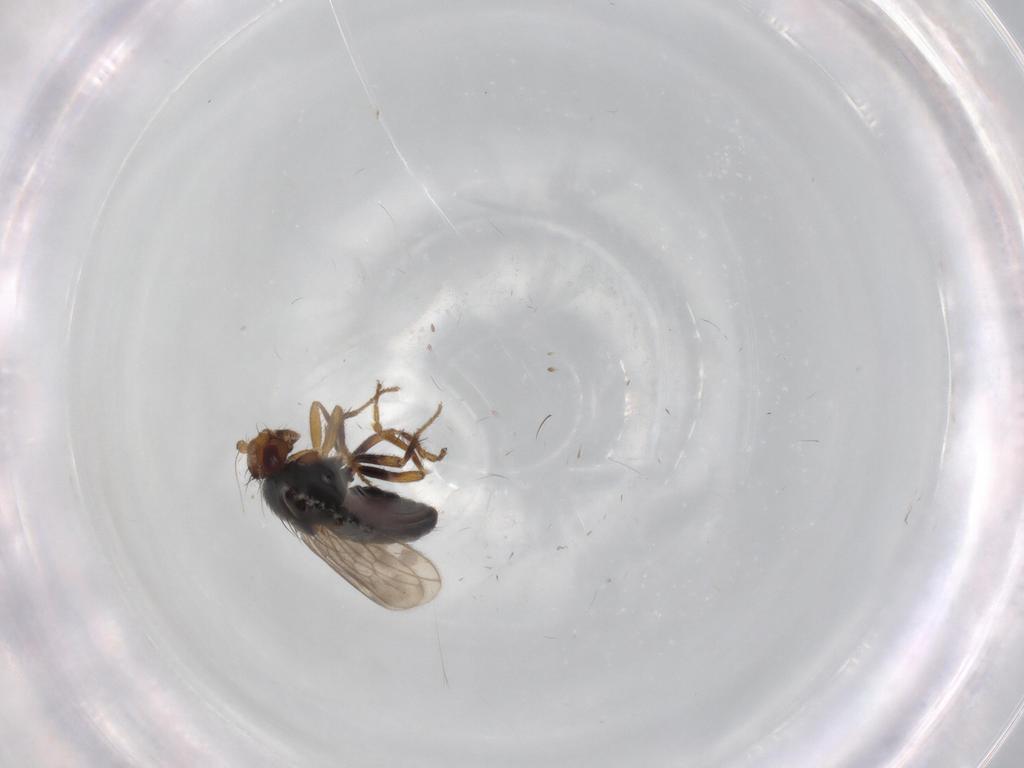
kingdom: Animalia
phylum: Arthropoda
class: Insecta
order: Diptera
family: Sphaeroceridae
